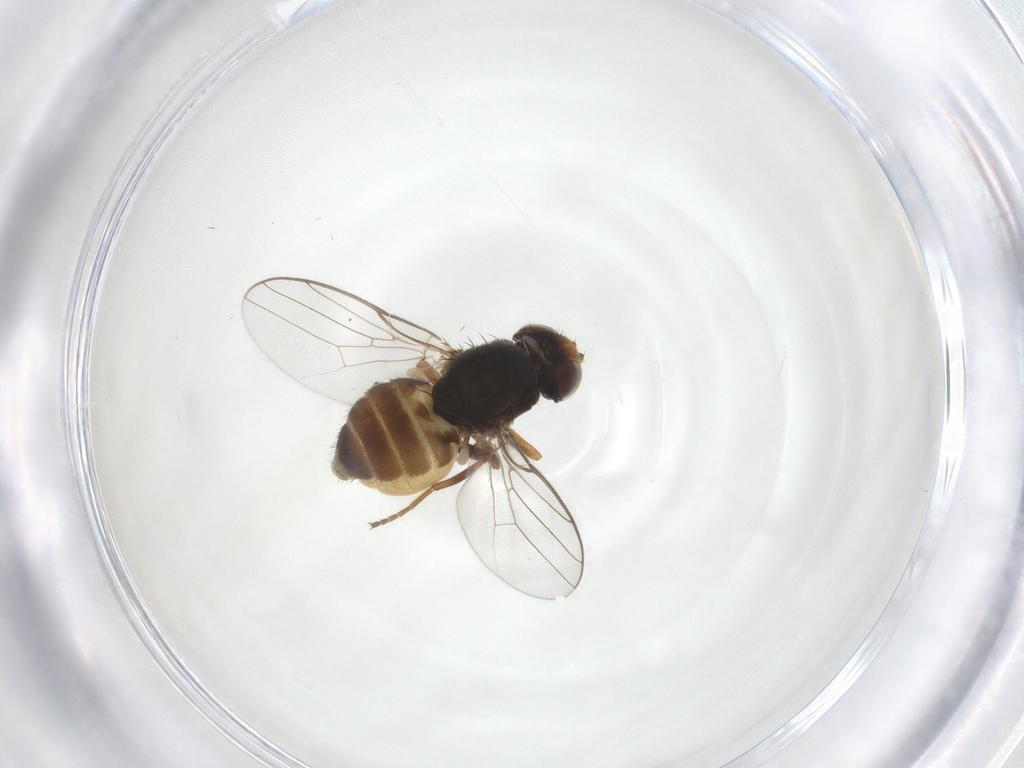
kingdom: Animalia
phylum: Arthropoda
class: Insecta
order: Diptera
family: Chloropidae
